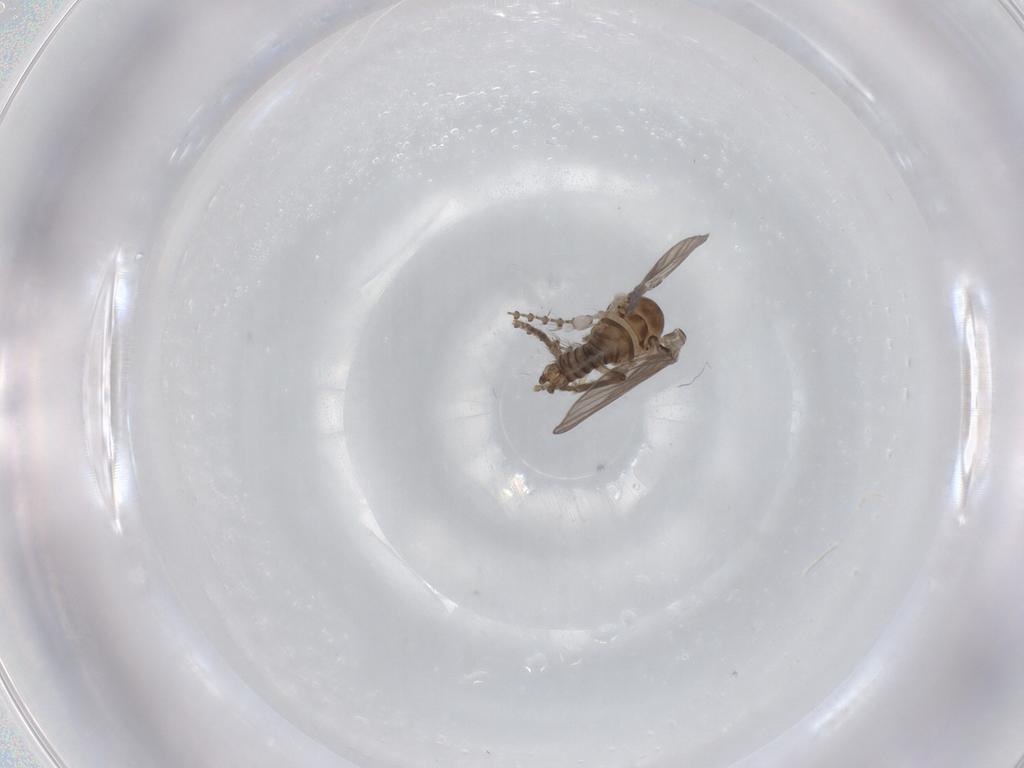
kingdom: Animalia
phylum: Arthropoda
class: Insecta
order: Diptera
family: Psychodidae
